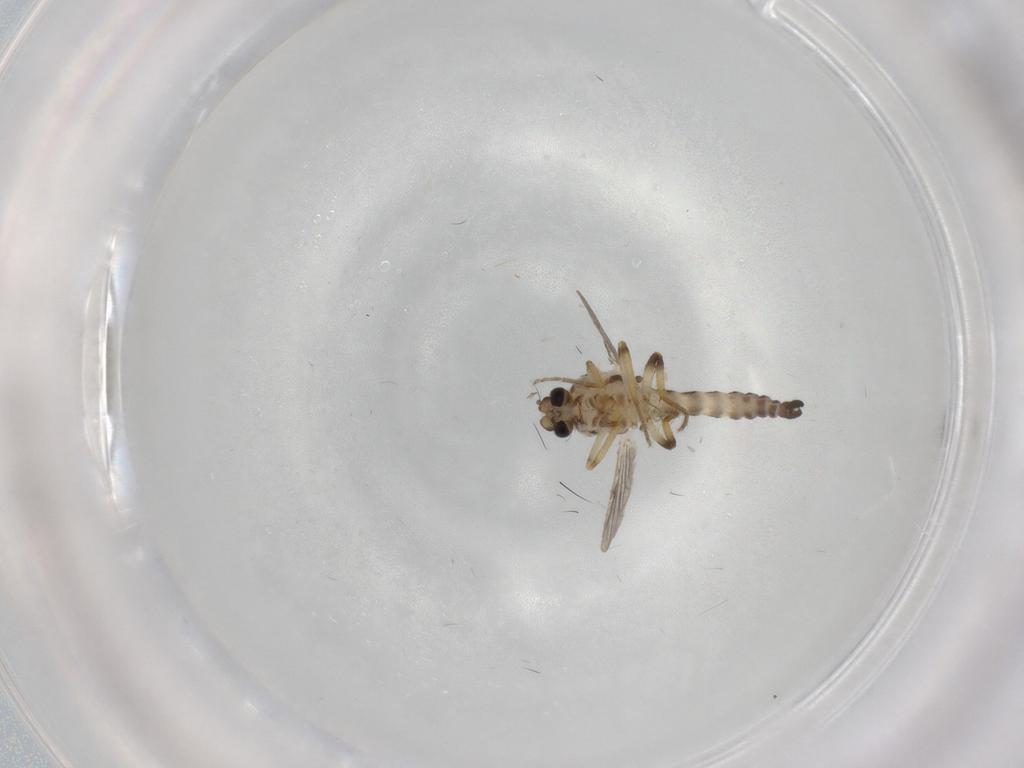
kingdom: Animalia
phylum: Arthropoda
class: Insecta
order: Diptera
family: Ceratopogonidae
